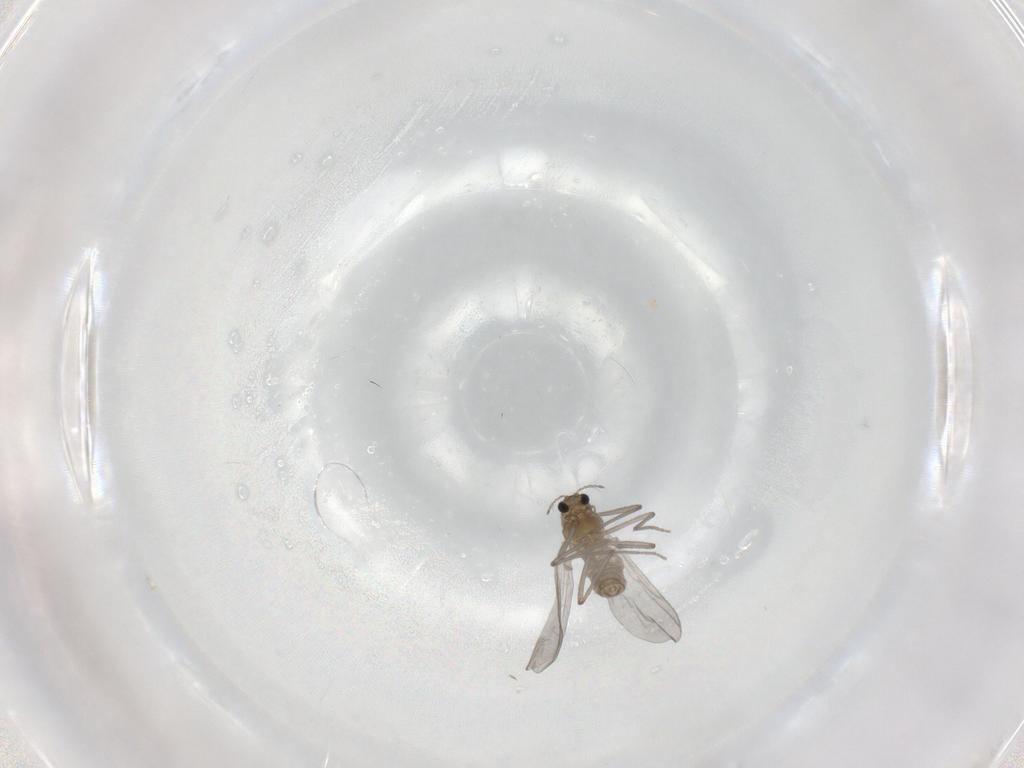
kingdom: Animalia
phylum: Arthropoda
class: Insecta
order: Diptera
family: Chironomidae
